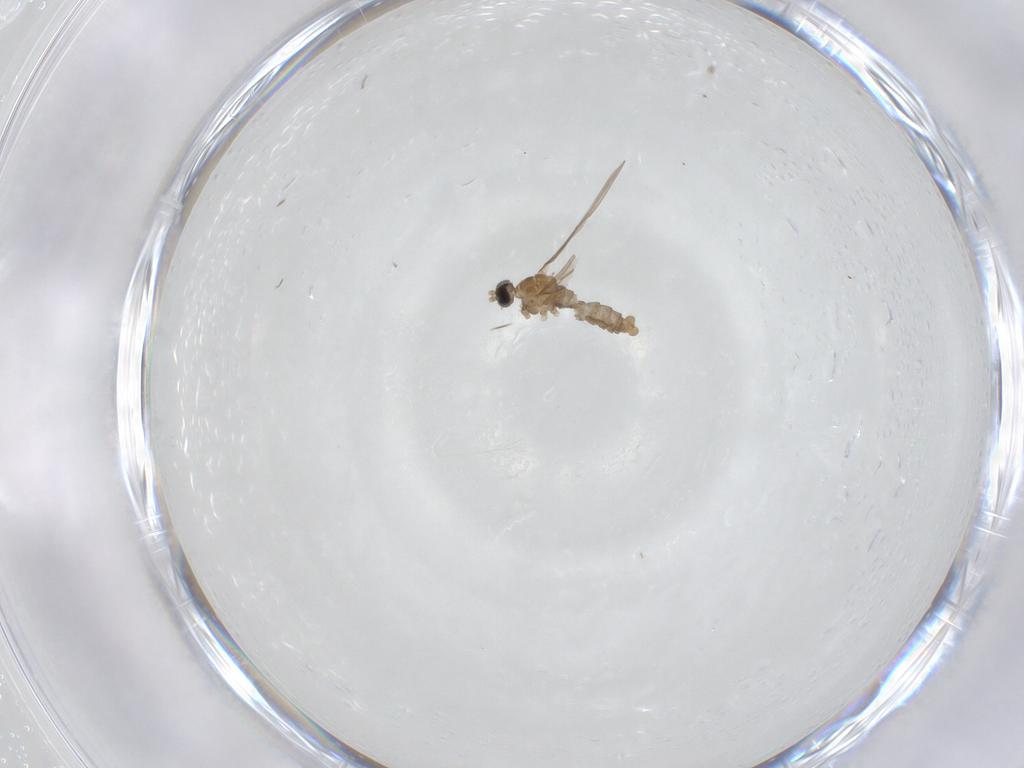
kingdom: Animalia
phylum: Arthropoda
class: Insecta
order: Diptera
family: Cecidomyiidae
